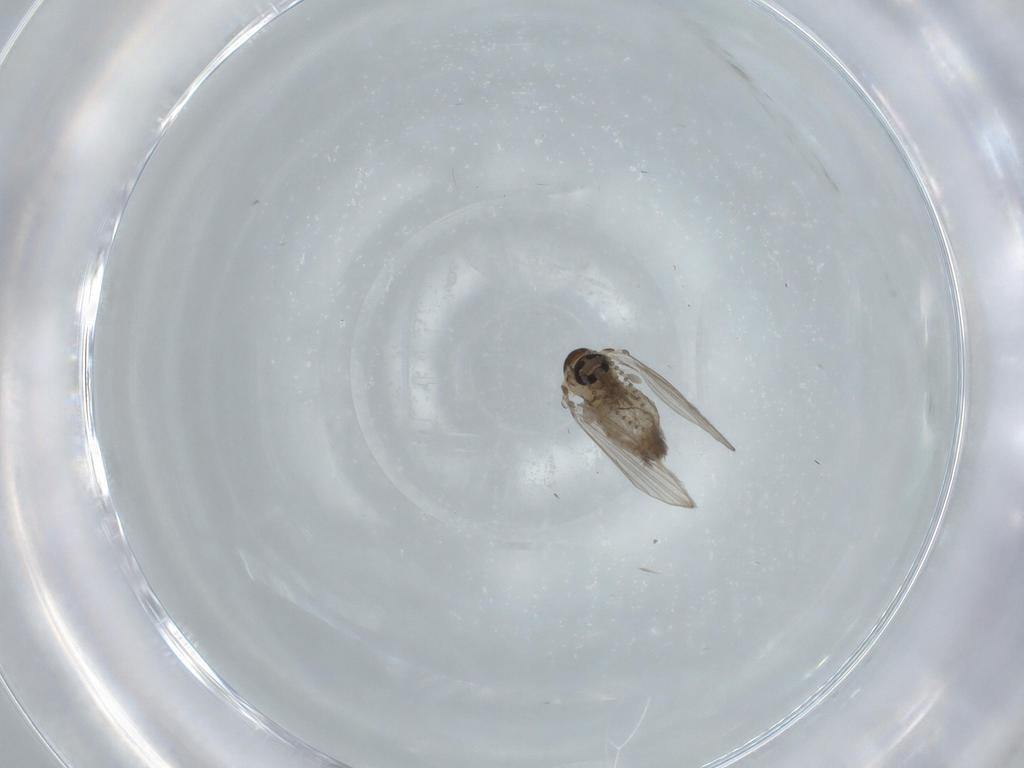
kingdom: Animalia
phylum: Arthropoda
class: Insecta
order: Diptera
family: Psychodidae
